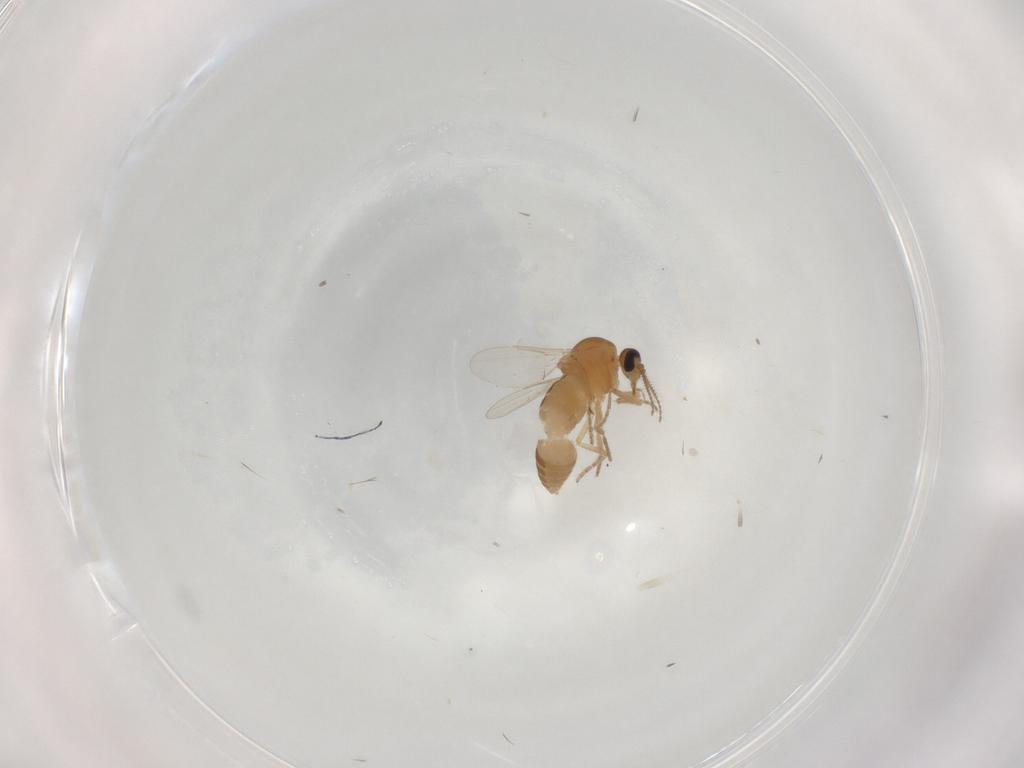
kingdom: Animalia
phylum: Arthropoda
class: Insecta
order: Diptera
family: Ceratopogonidae
